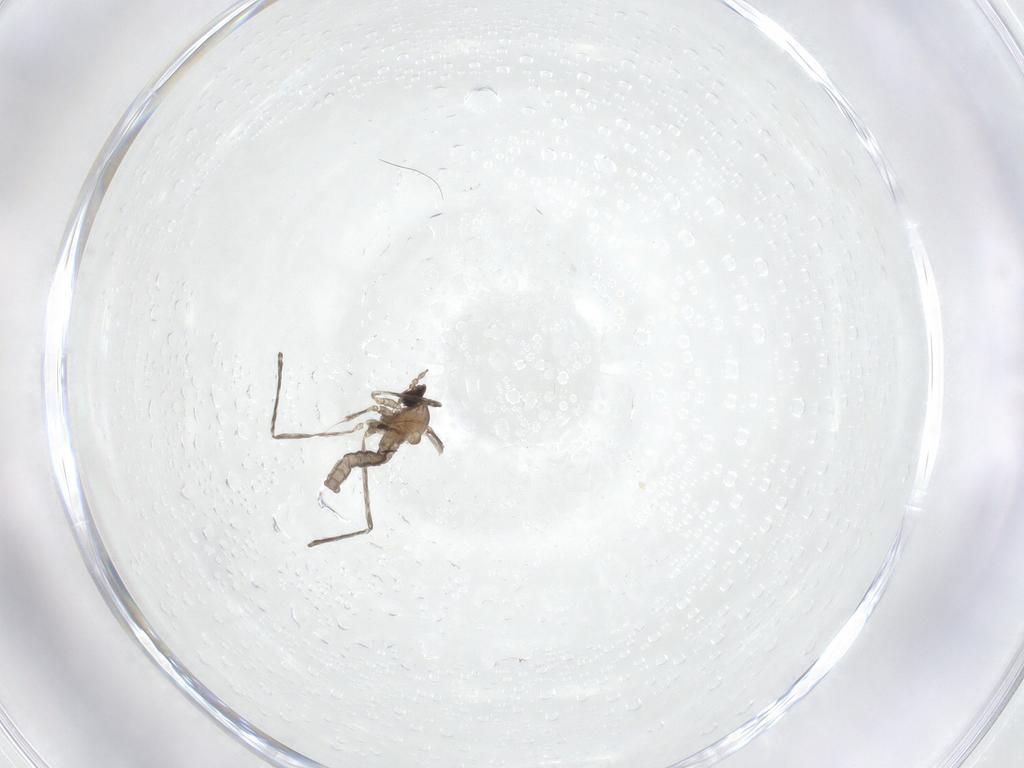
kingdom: Animalia
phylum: Arthropoda
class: Insecta
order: Diptera
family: Cecidomyiidae
